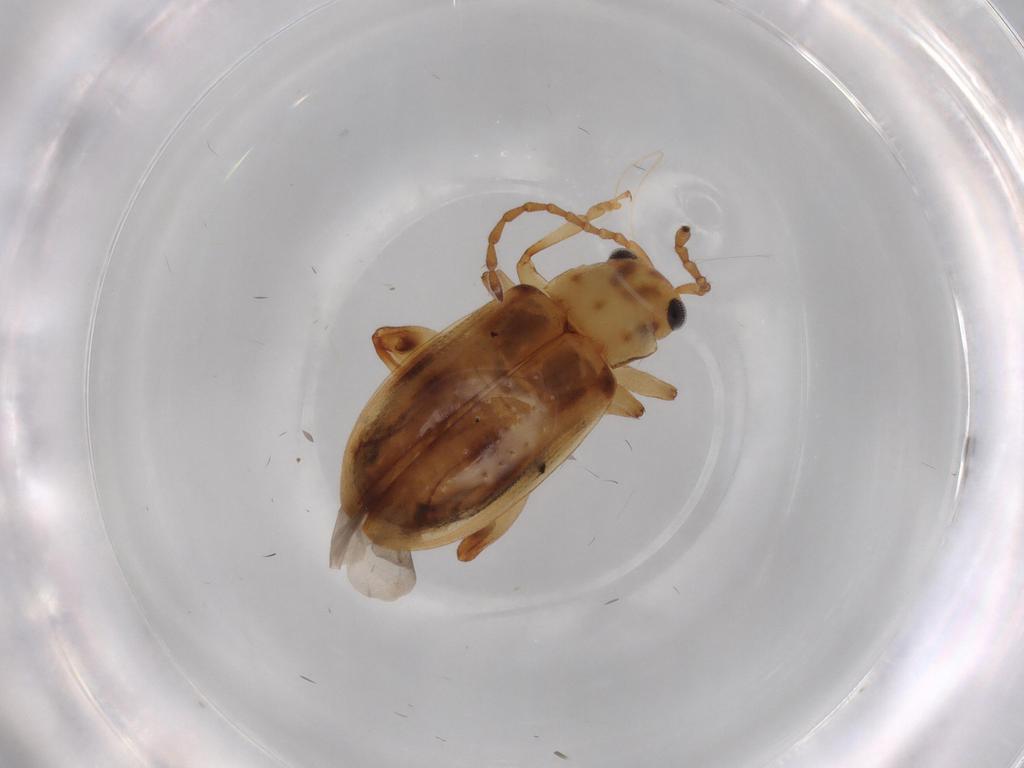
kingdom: Animalia
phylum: Arthropoda
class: Insecta
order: Coleoptera
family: Chrysomelidae
